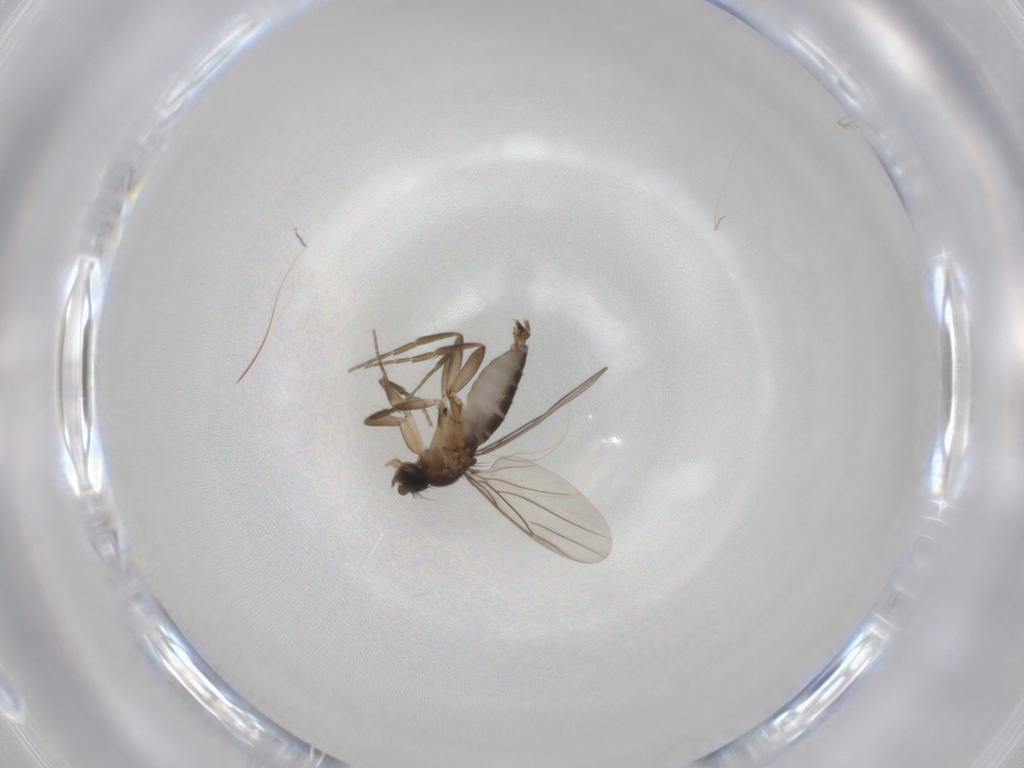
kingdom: Animalia
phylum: Arthropoda
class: Insecta
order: Diptera
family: Phoridae
